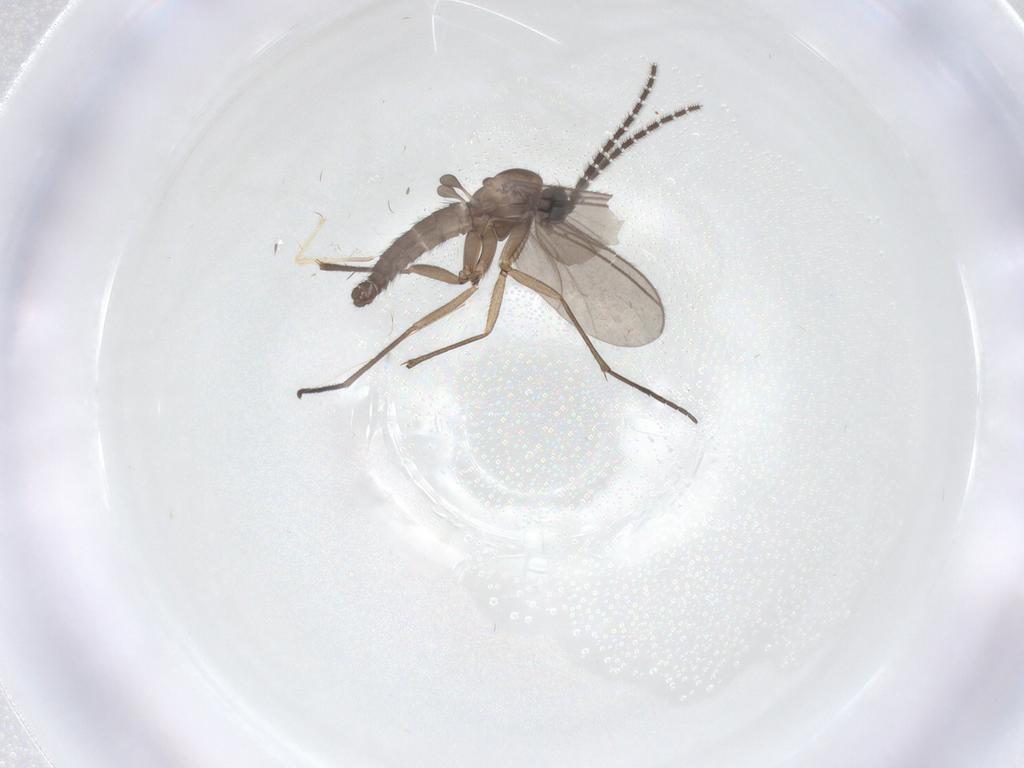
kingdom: Animalia
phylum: Arthropoda
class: Insecta
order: Diptera
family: Sciaridae
